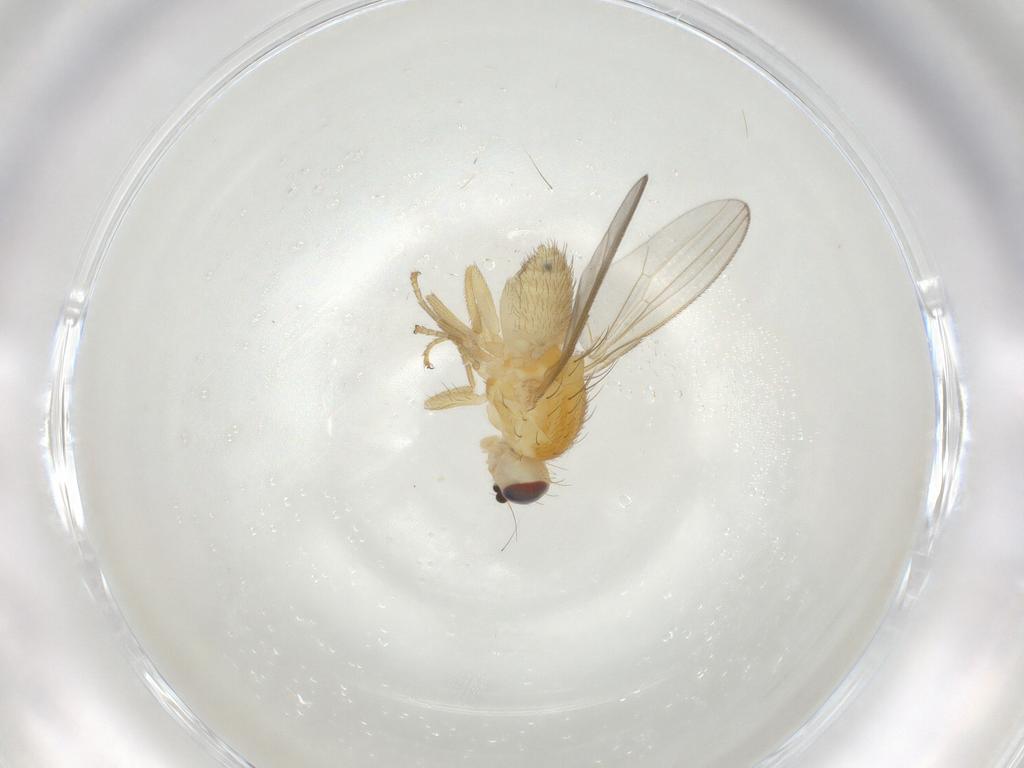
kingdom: Animalia
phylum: Arthropoda
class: Insecta
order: Diptera
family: Chyromyidae
